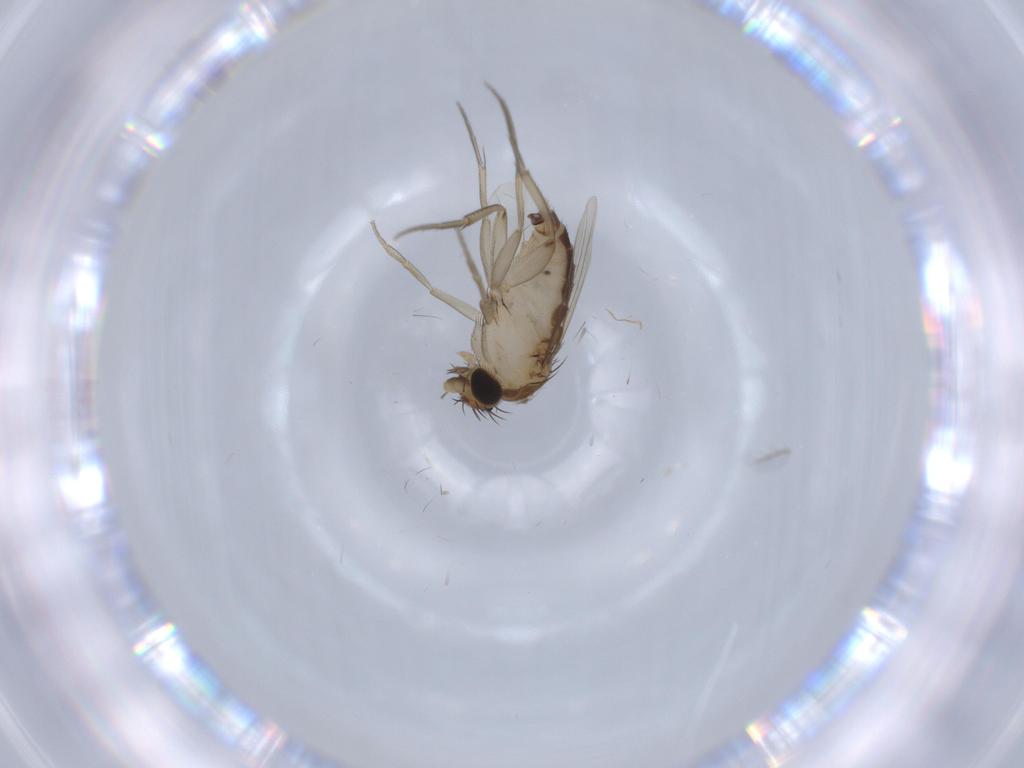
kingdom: Animalia
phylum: Arthropoda
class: Insecta
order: Diptera
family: Phoridae
